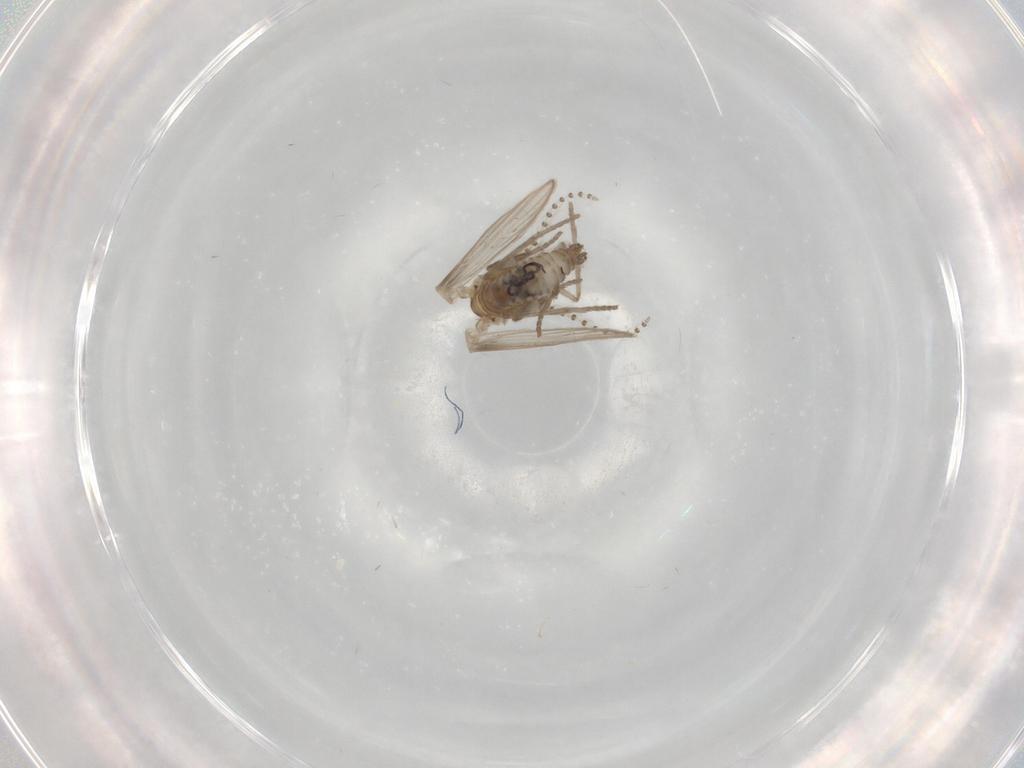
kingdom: Animalia
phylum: Arthropoda
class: Insecta
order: Diptera
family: Psychodidae
